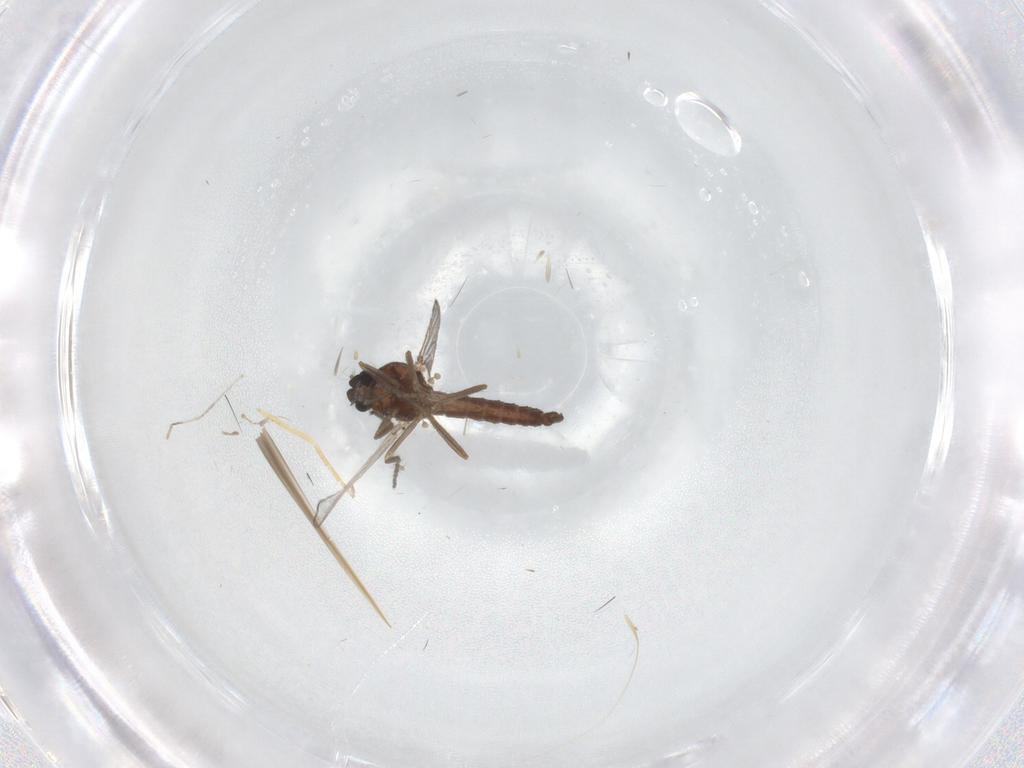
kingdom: Animalia
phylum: Arthropoda
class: Insecta
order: Diptera
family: Ceratopogonidae
